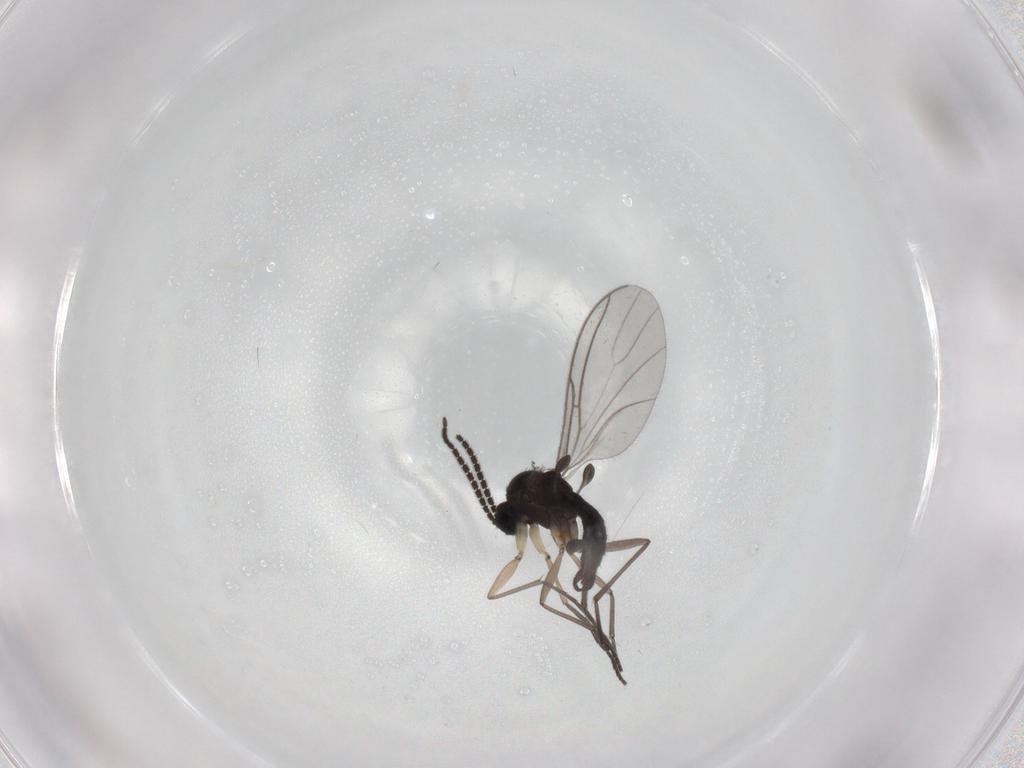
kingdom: Animalia
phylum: Arthropoda
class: Insecta
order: Diptera
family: Sciaridae
